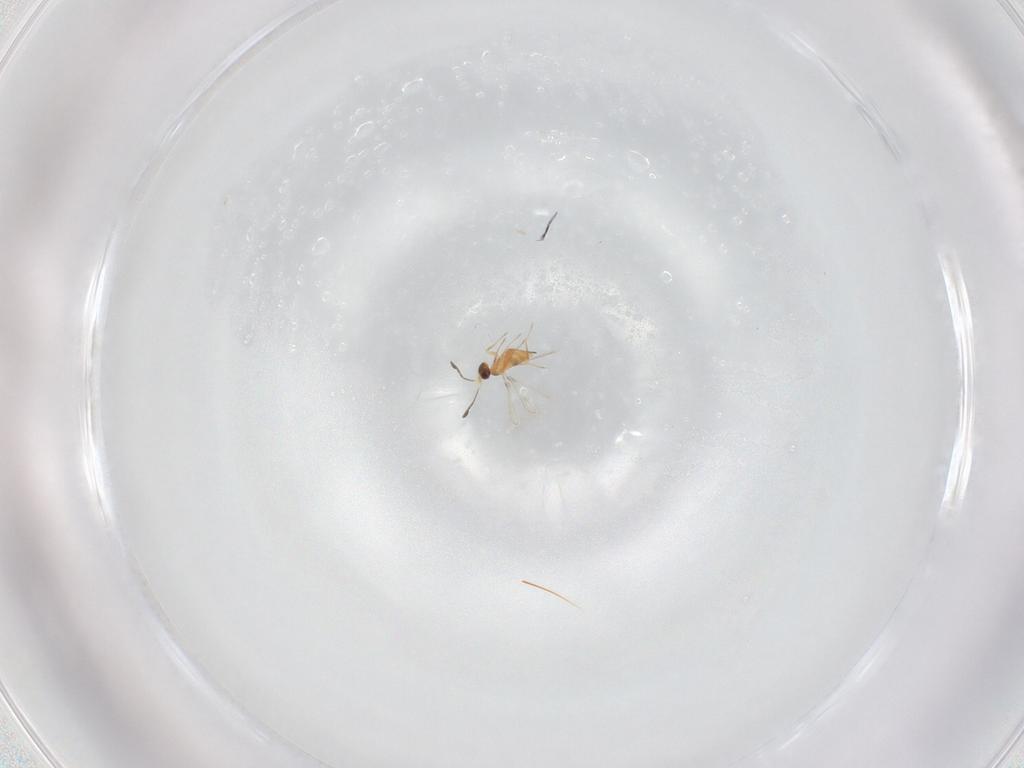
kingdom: Animalia
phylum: Arthropoda
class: Insecta
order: Hymenoptera
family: Mymaridae
